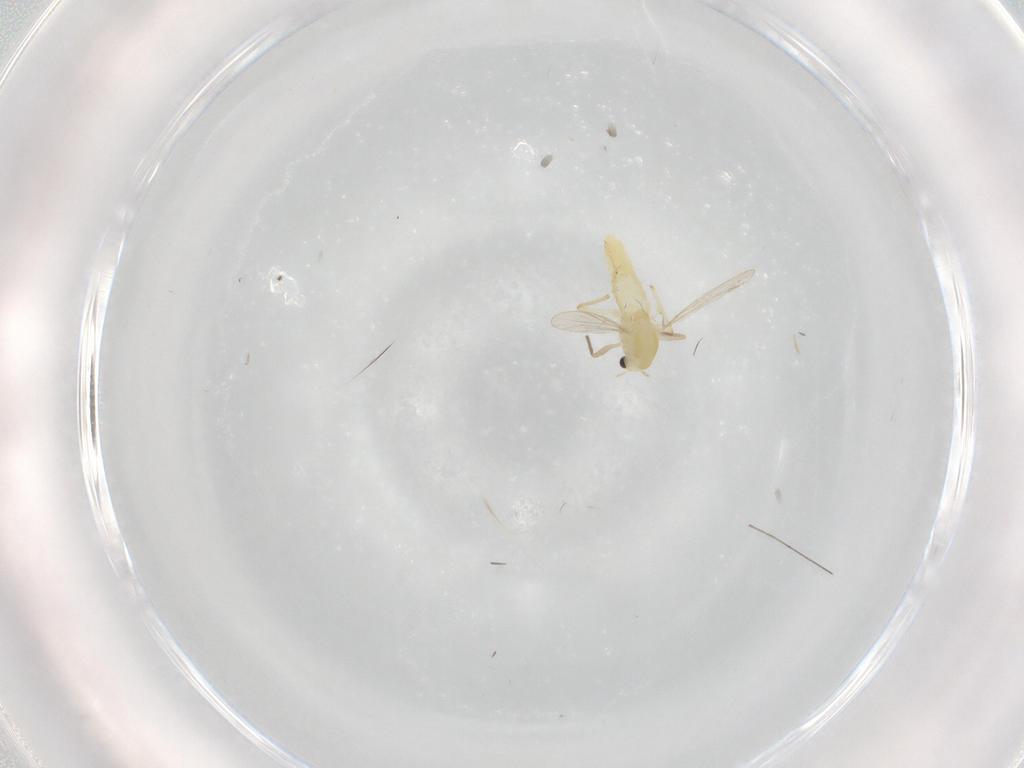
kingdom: Animalia
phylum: Arthropoda
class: Insecta
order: Diptera
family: Chironomidae
